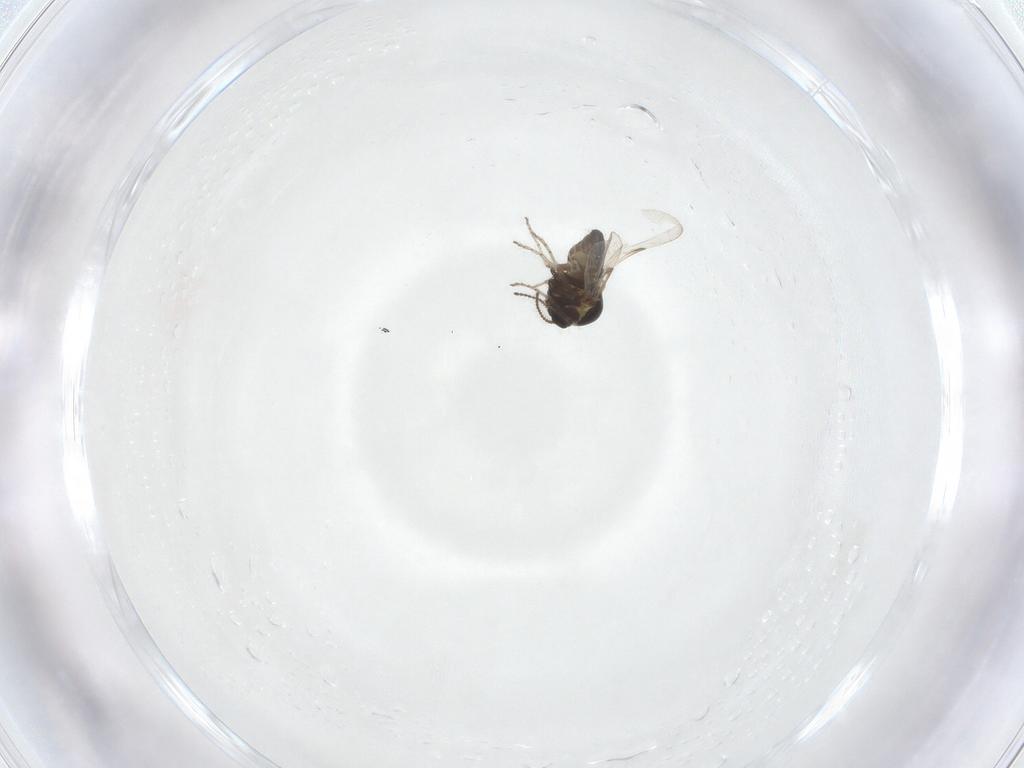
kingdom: Animalia
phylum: Arthropoda
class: Insecta
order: Diptera
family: Ceratopogonidae
